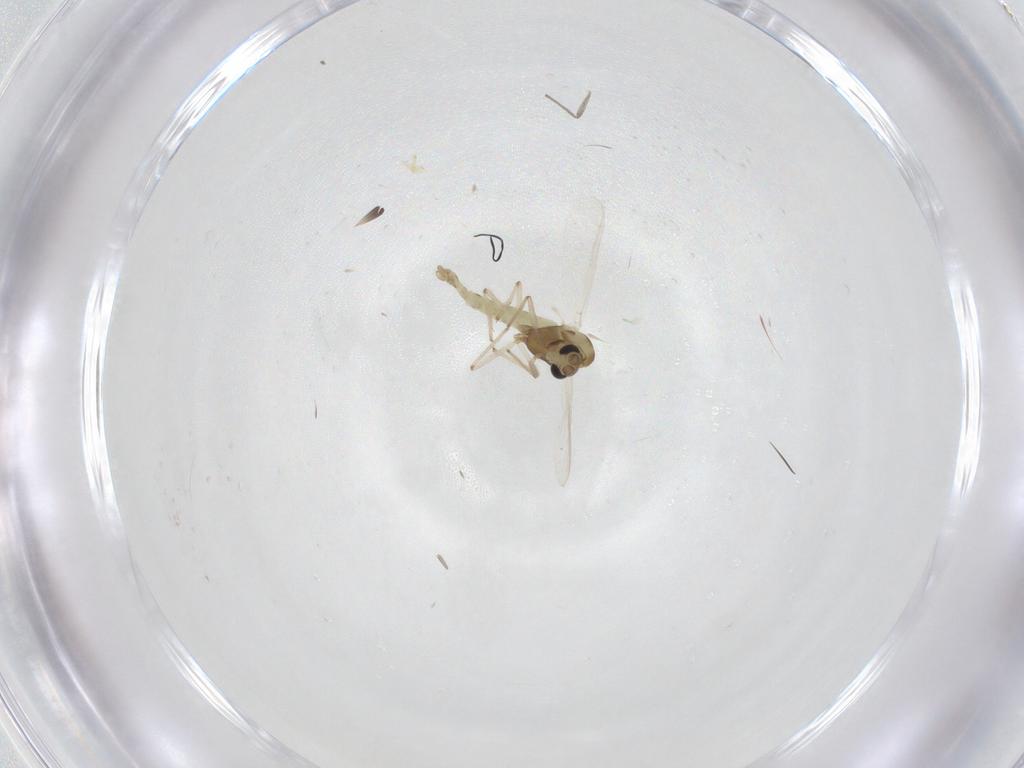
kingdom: Animalia
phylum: Arthropoda
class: Insecta
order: Diptera
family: Chironomidae
